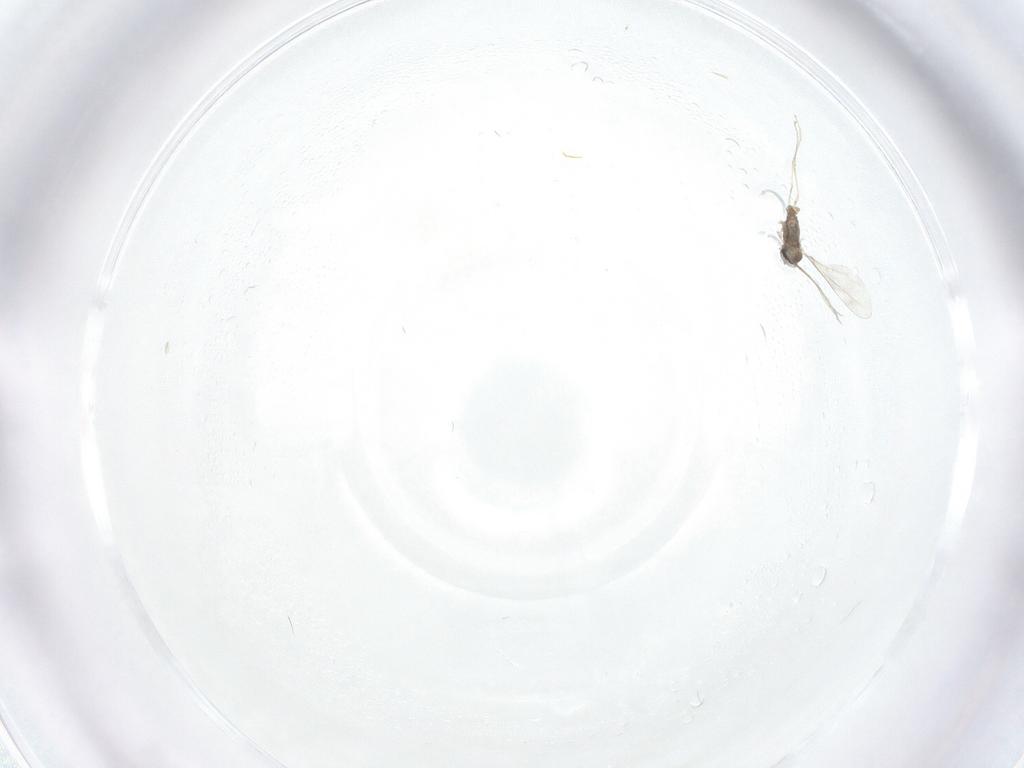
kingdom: Animalia
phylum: Arthropoda
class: Insecta
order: Diptera
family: Cecidomyiidae
